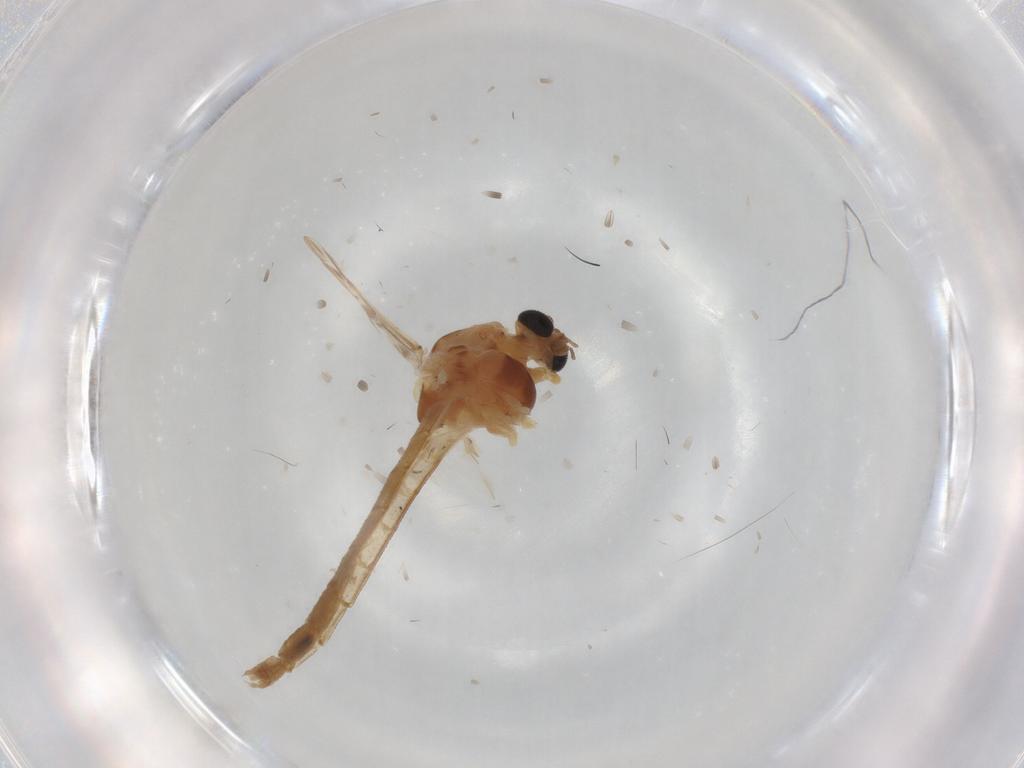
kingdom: Animalia
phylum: Arthropoda
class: Insecta
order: Diptera
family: Chironomidae
